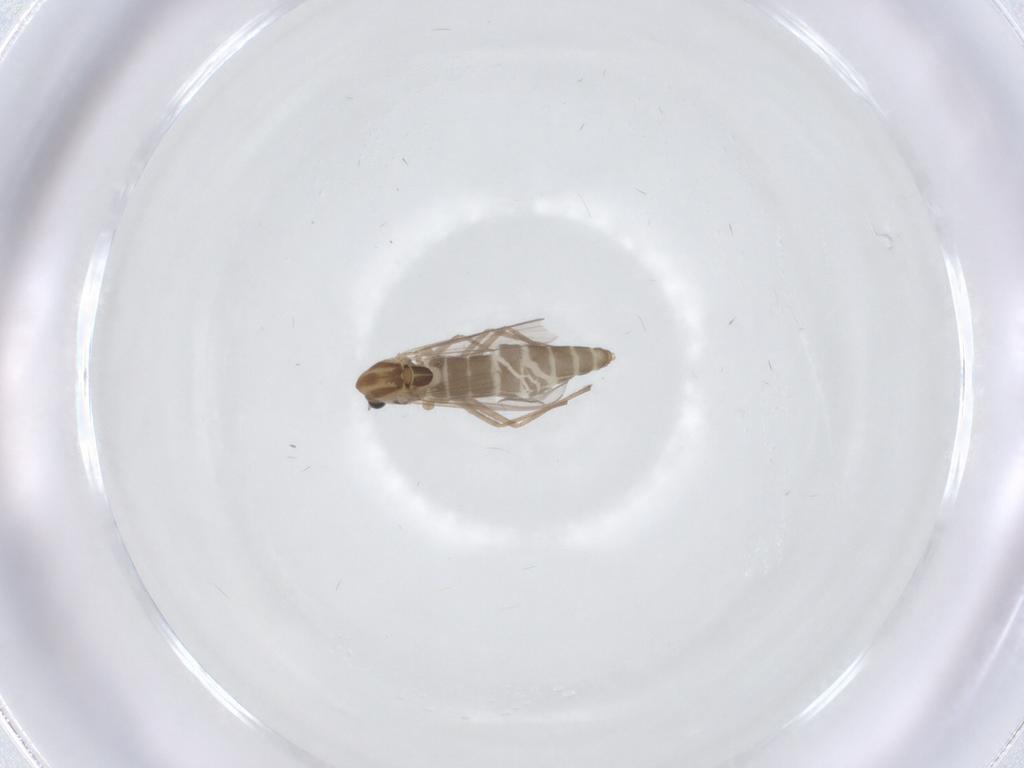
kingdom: Animalia
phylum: Arthropoda
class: Insecta
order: Diptera
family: Chironomidae
